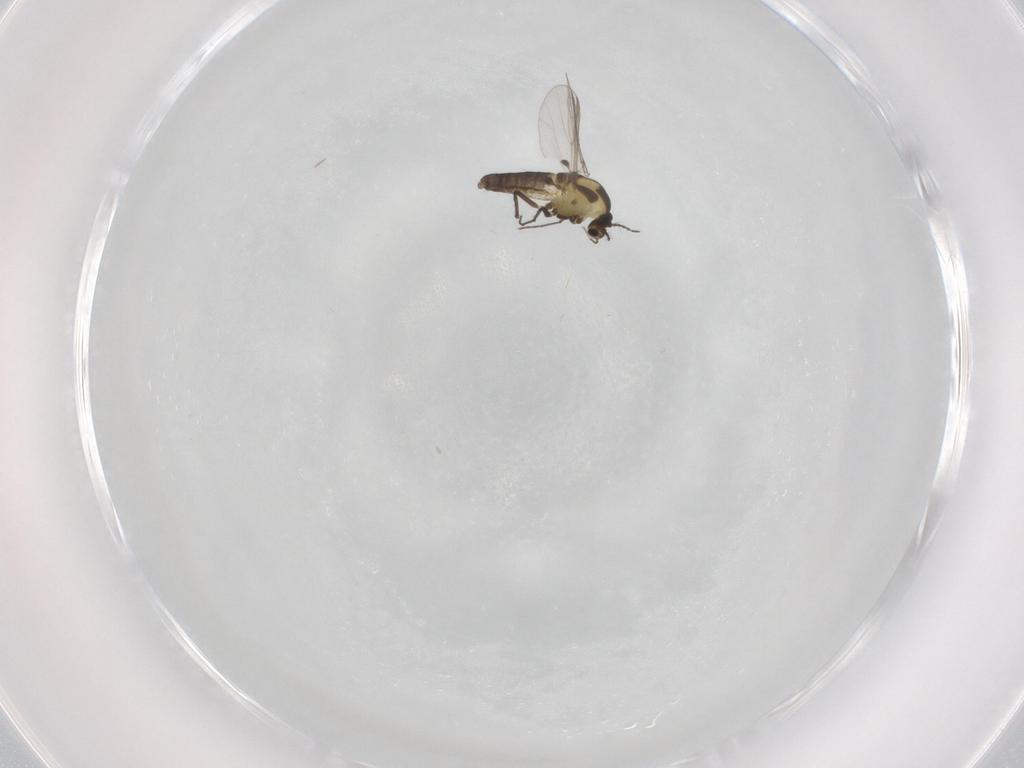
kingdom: Animalia
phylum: Arthropoda
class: Insecta
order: Diptera
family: Chironomidae
